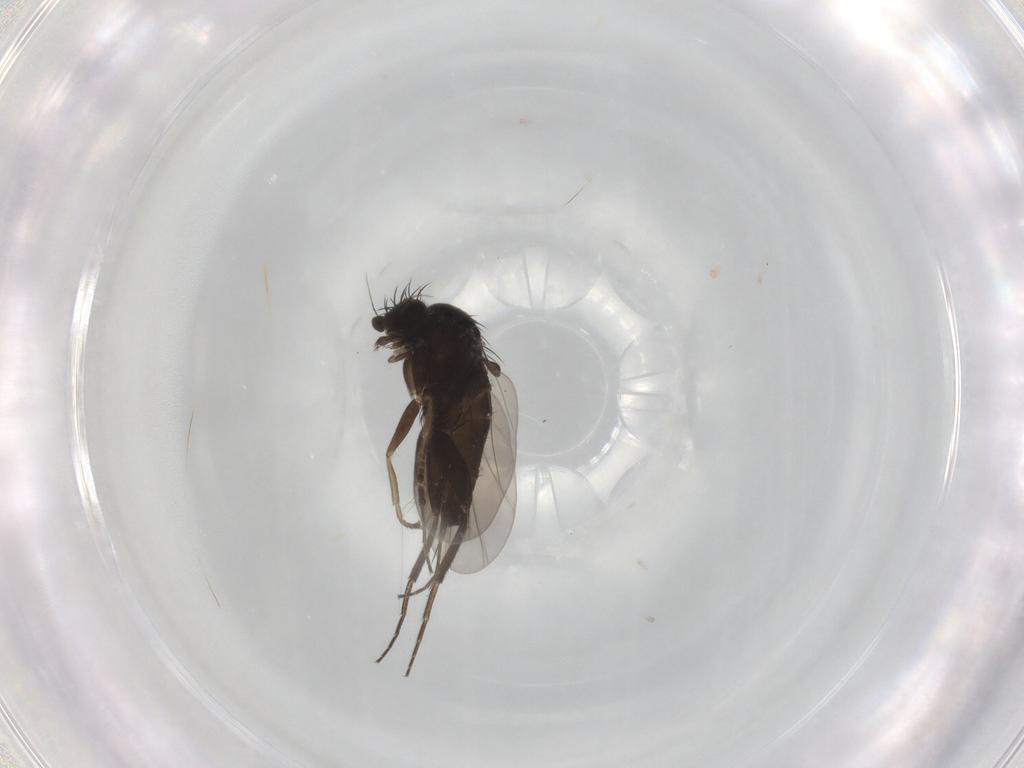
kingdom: Animalia
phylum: Arthropoda
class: Insecta
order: Diptera
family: Phoridae
